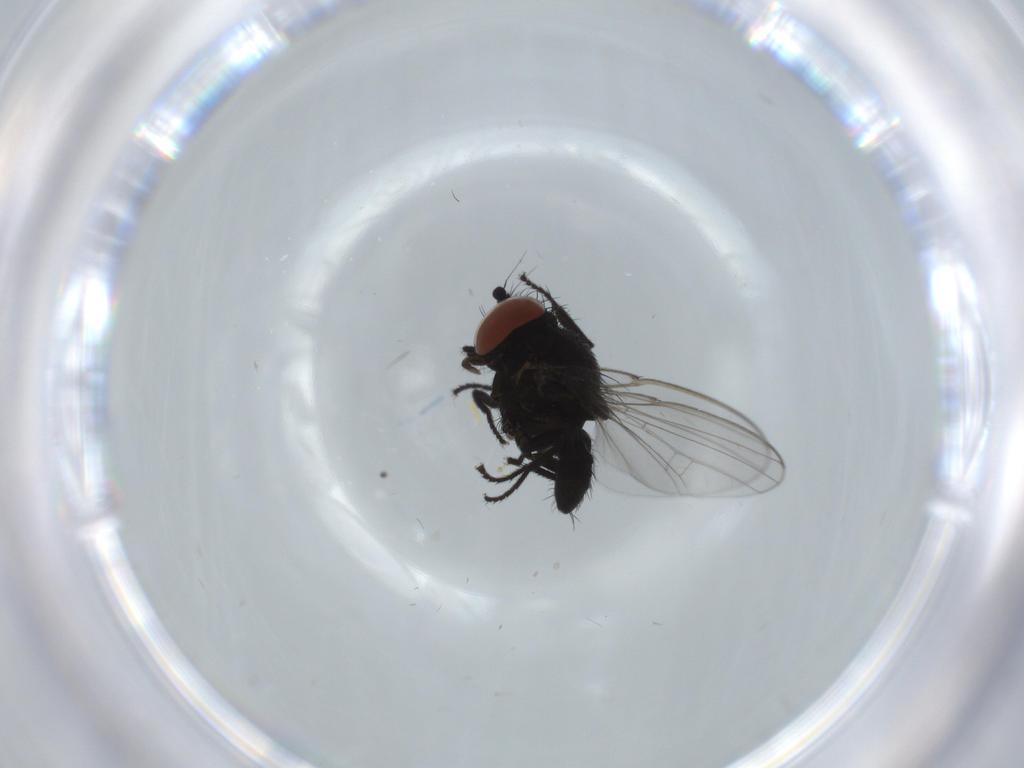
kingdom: Animalia
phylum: Arthropoda
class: Insecta
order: Diptera
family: Milichiidae
